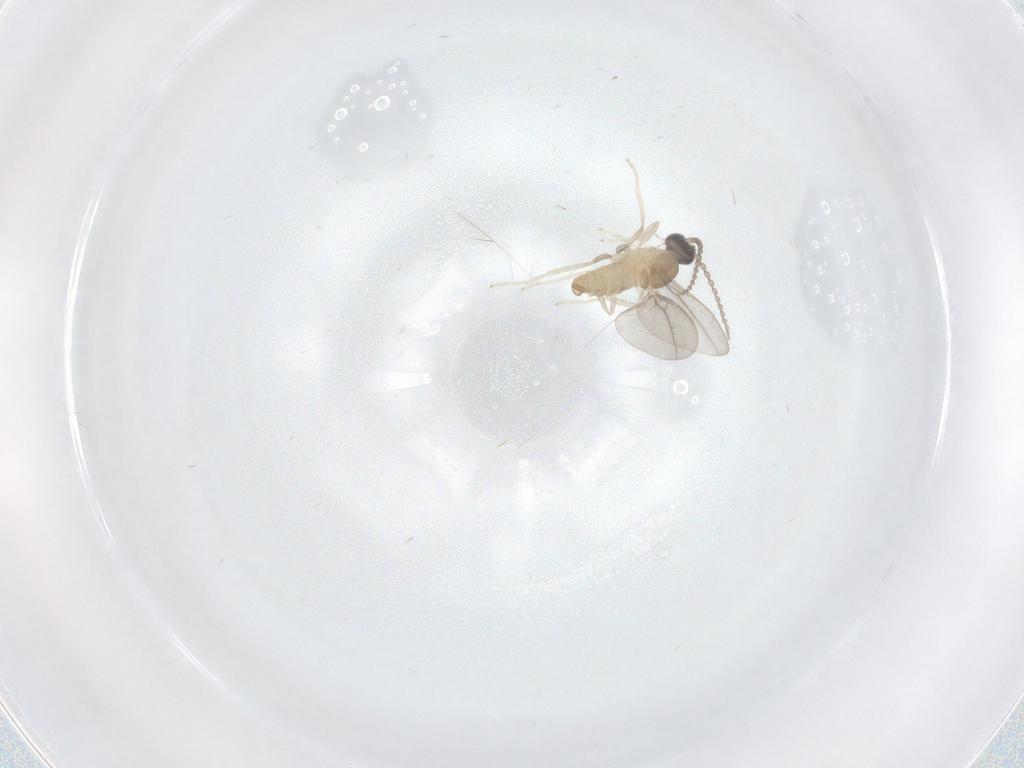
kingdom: Animalia
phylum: Arthropoda
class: Insecta
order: Diptera
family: Cecidomyiidae
